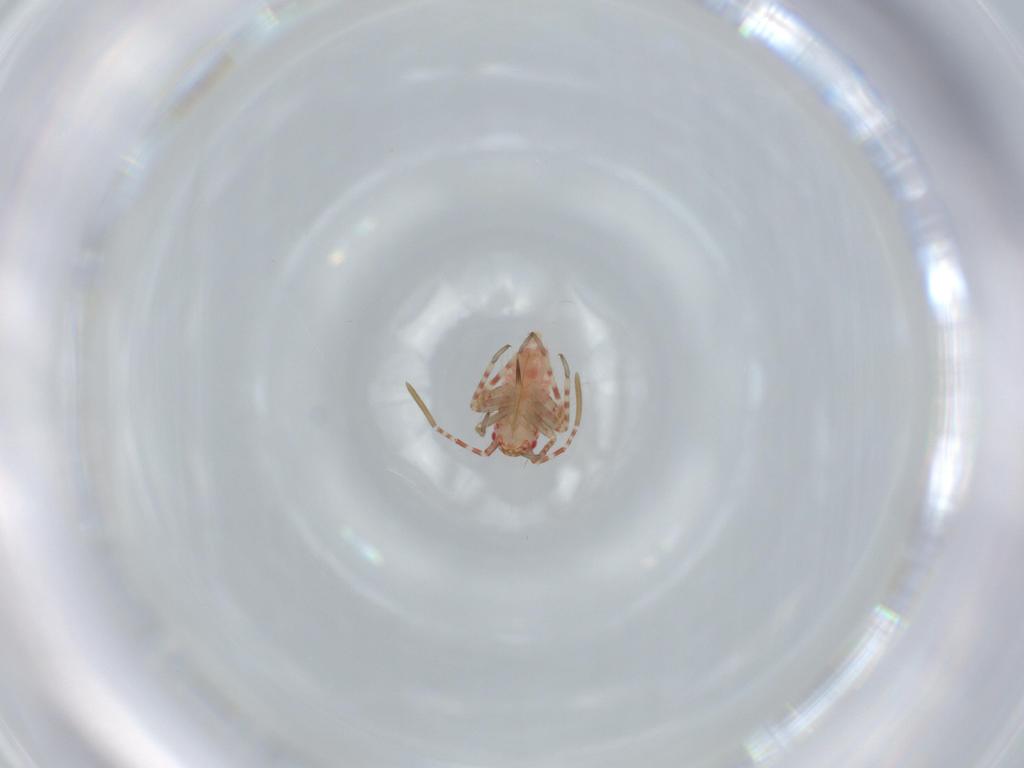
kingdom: Animalia
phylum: Arthropoda
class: Insecta
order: Hemiptera
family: Miridae
